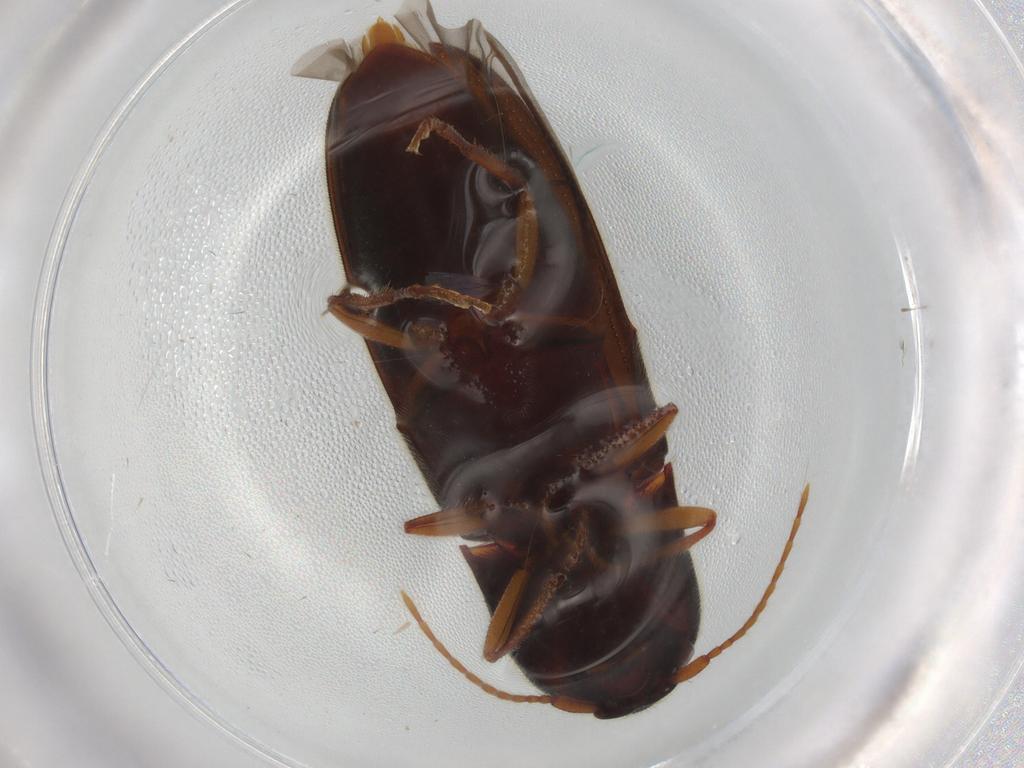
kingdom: Animalia
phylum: Arthropoda
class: Insecta
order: Coleoptera
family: Elateridae
